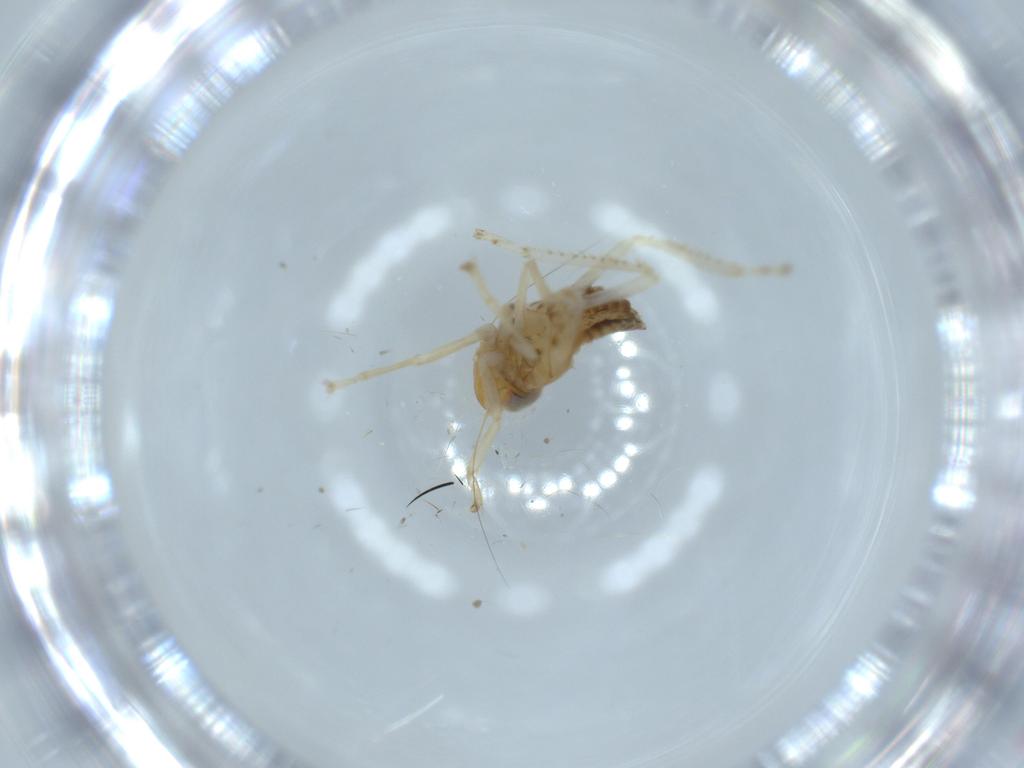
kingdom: Animalia
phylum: Arthropoda
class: Insecta
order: Hemiptera
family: Cicadellidae
